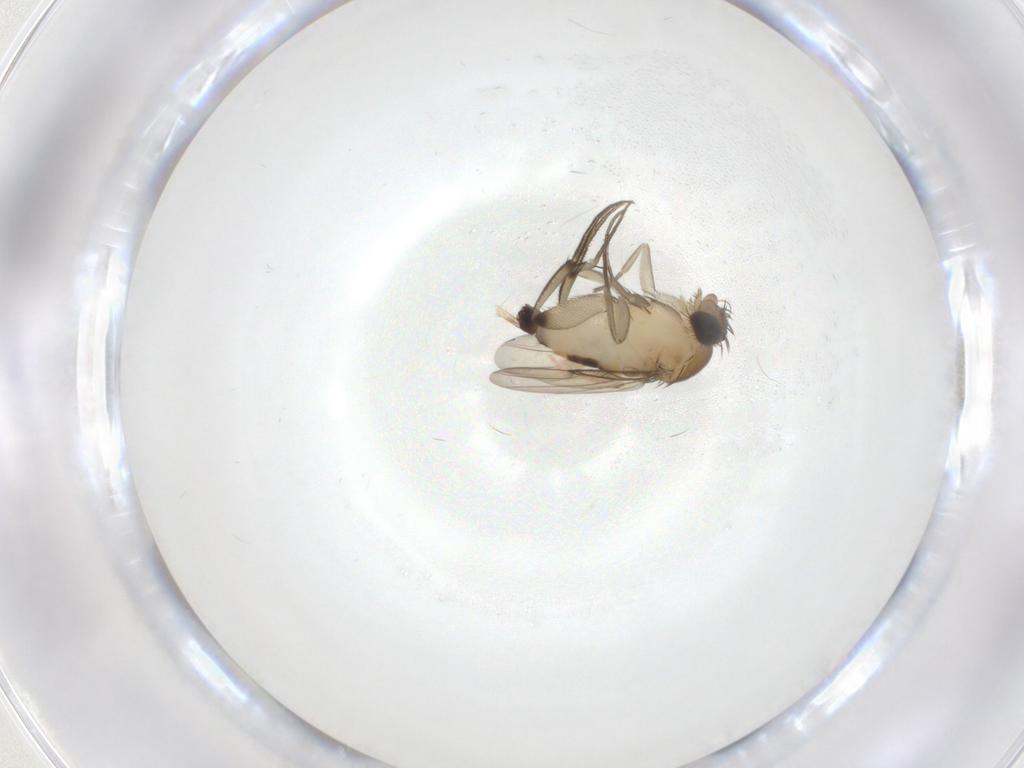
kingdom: Animalia
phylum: Arthropoda
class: Insecta
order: Diptera
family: Phoridae
